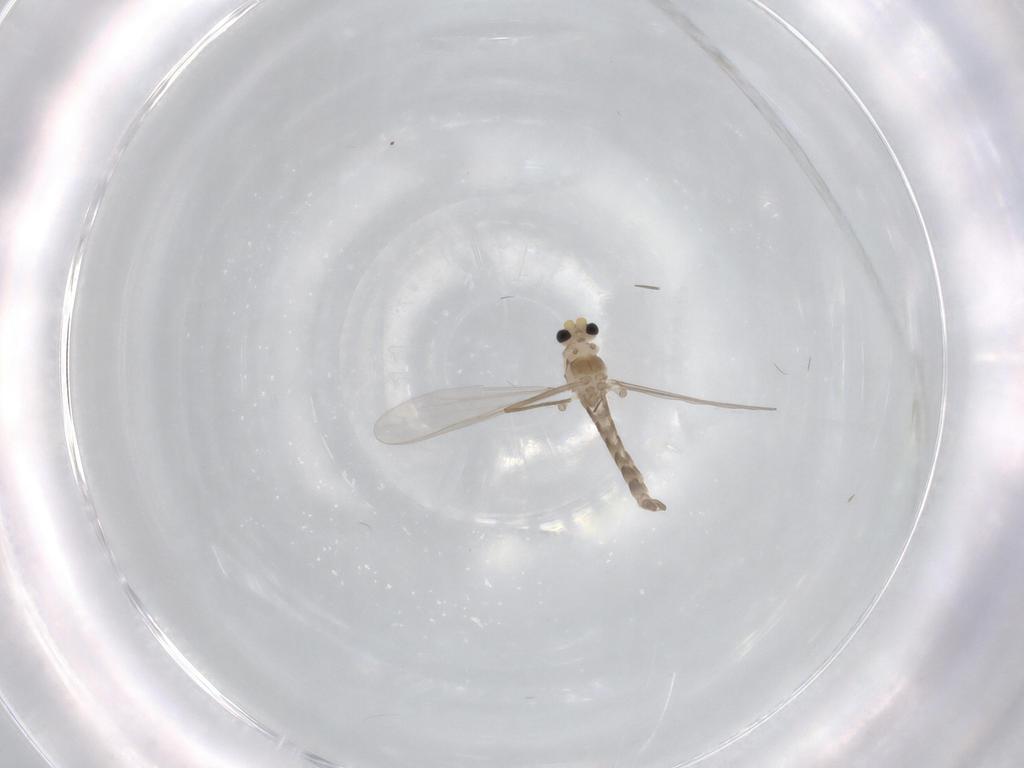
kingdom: Animalia
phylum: Arthropoda
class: Insecta
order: Diptera
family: Chironomidae
